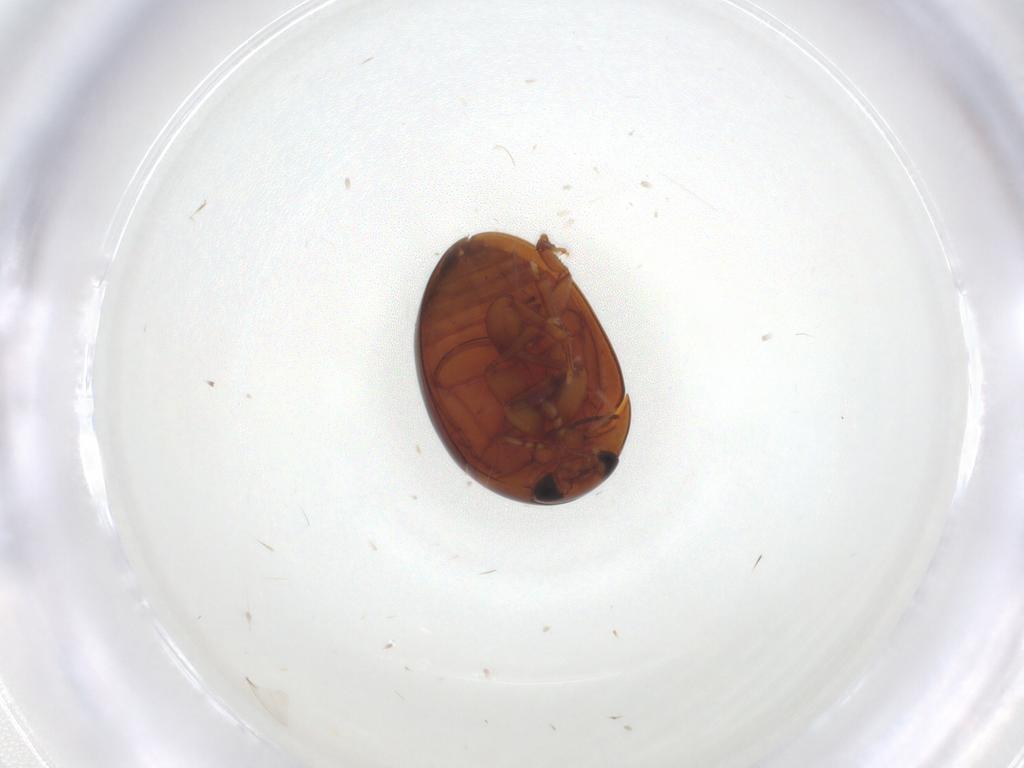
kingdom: Animalia
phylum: Arthropoda
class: Insecta
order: Coleoptera
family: Phalacridae
